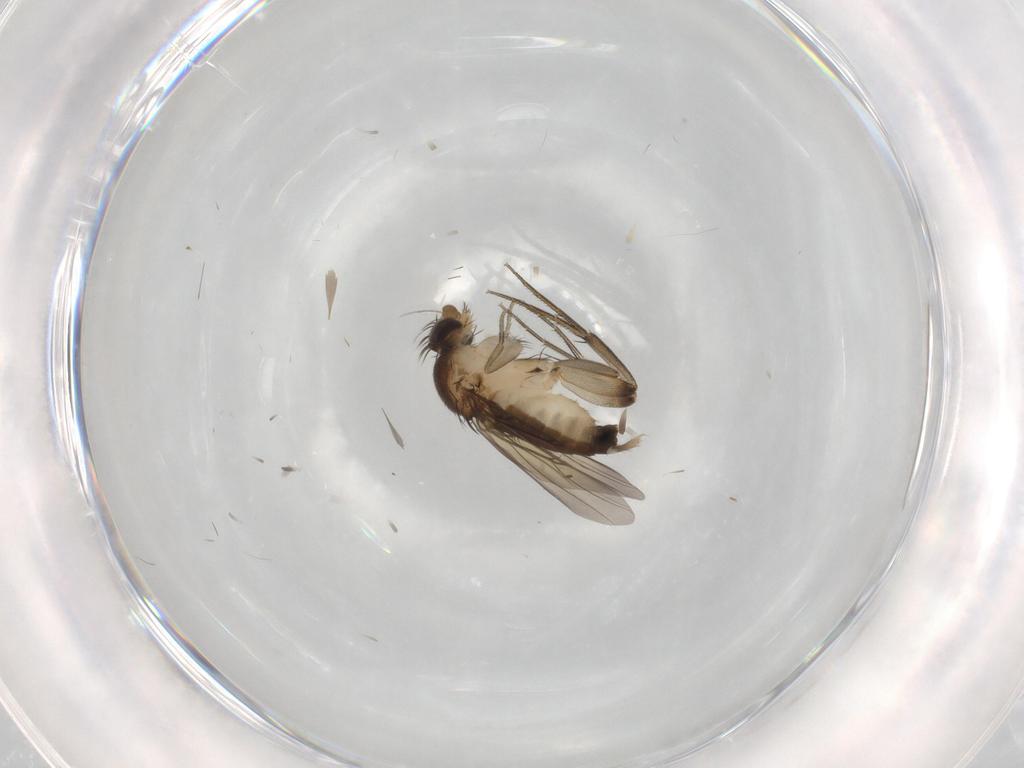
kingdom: Animalia
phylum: Arthropoda
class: Insecta
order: Diptera
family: Phoridae
